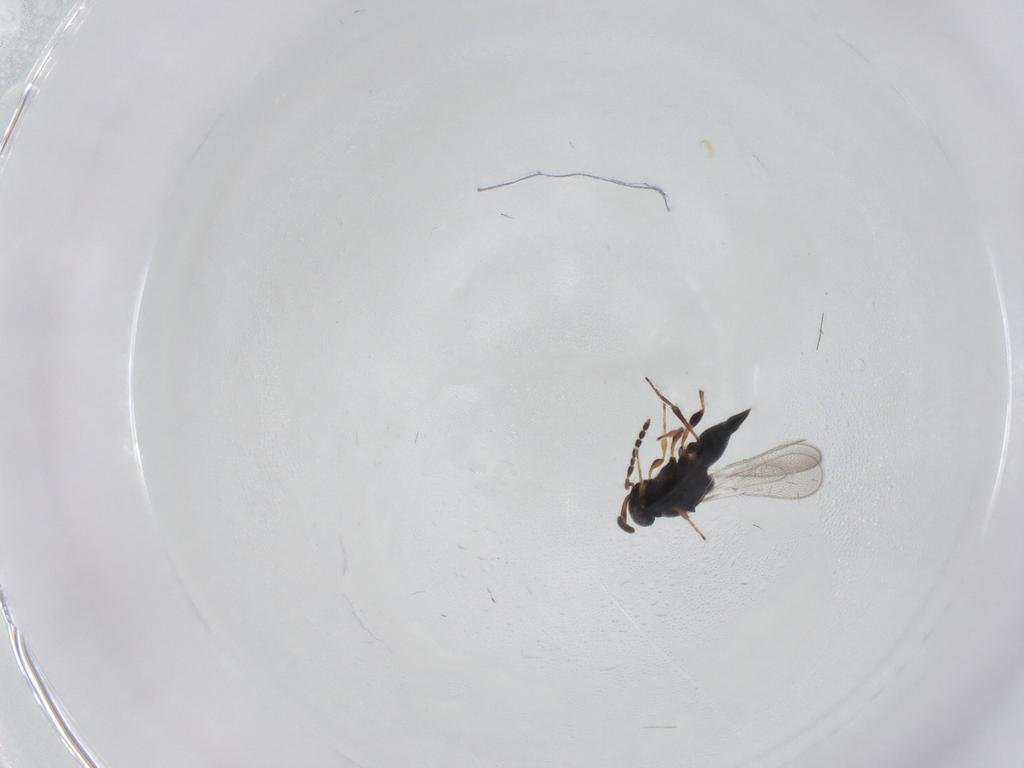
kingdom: Animalia
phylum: Arthropoda
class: Insecta
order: Hymenoptera
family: Platygastridae
